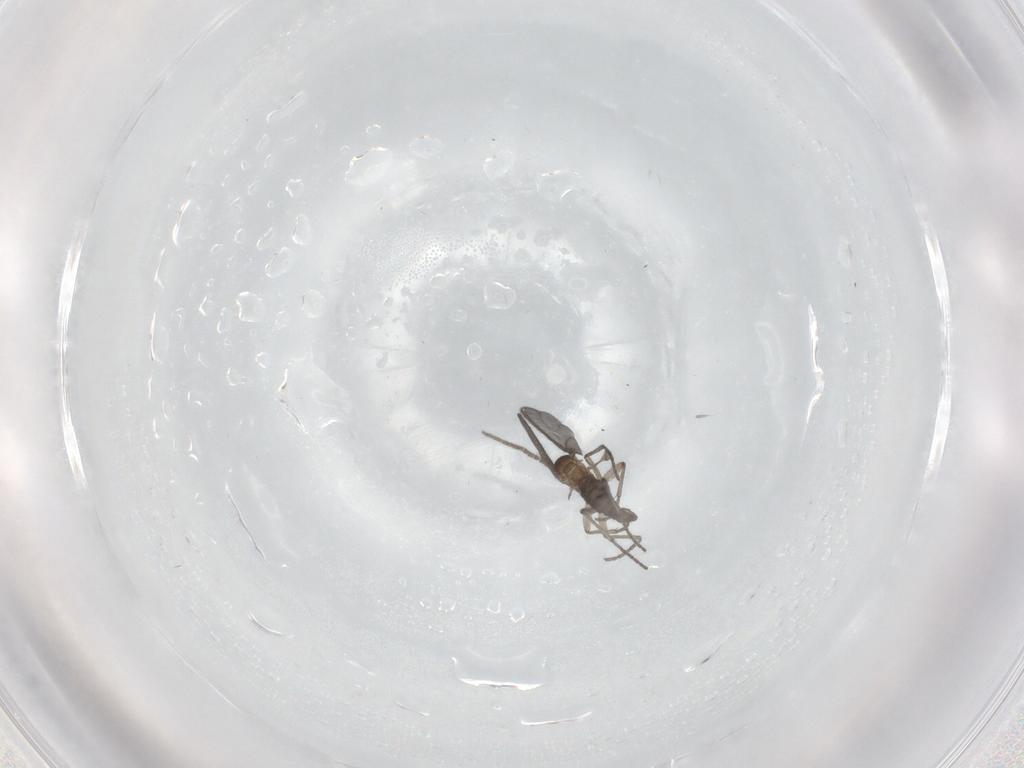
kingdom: Animalia
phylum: Arthropoda
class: Insecta
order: Diptera
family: Sciaridae
